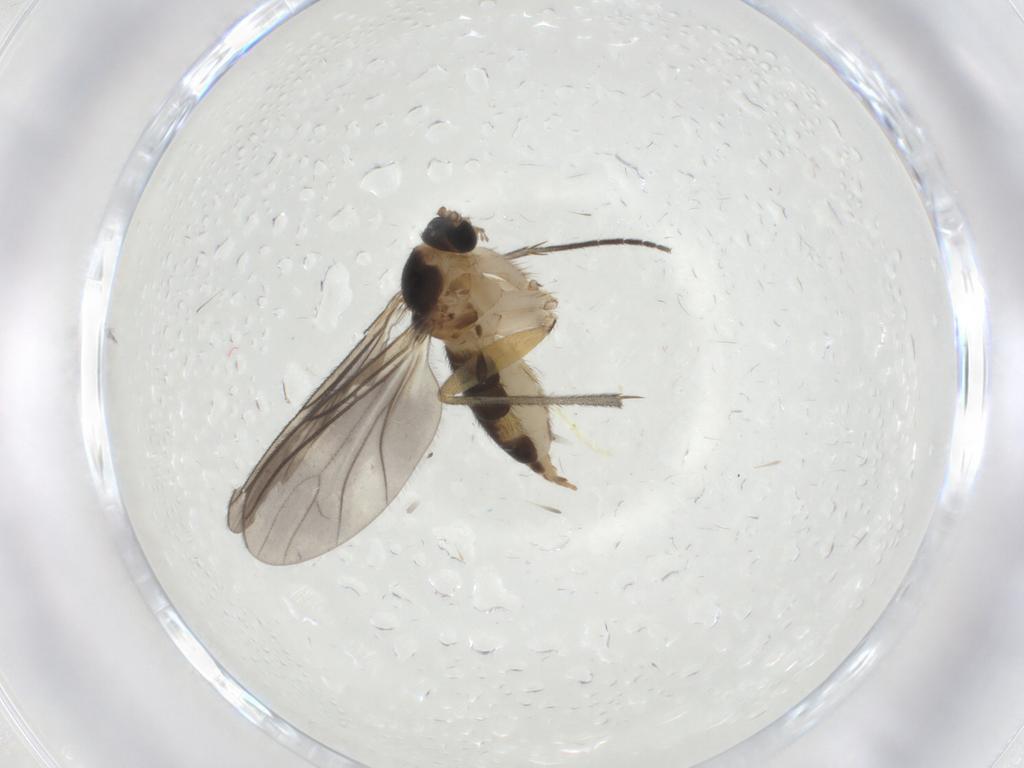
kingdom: Animalia
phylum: Arthropoda
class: Insecta
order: Diptera
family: Sciaridae
